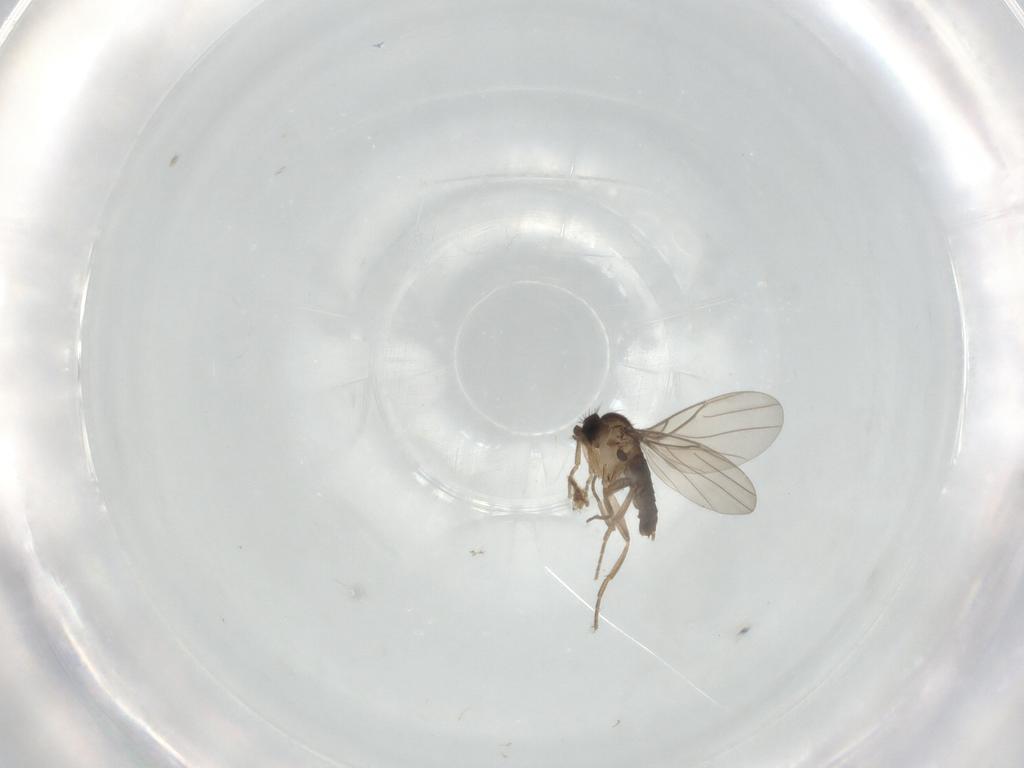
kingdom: Animalia
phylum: Arthropoda
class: Insecta
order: Diptera
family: Phoridae
